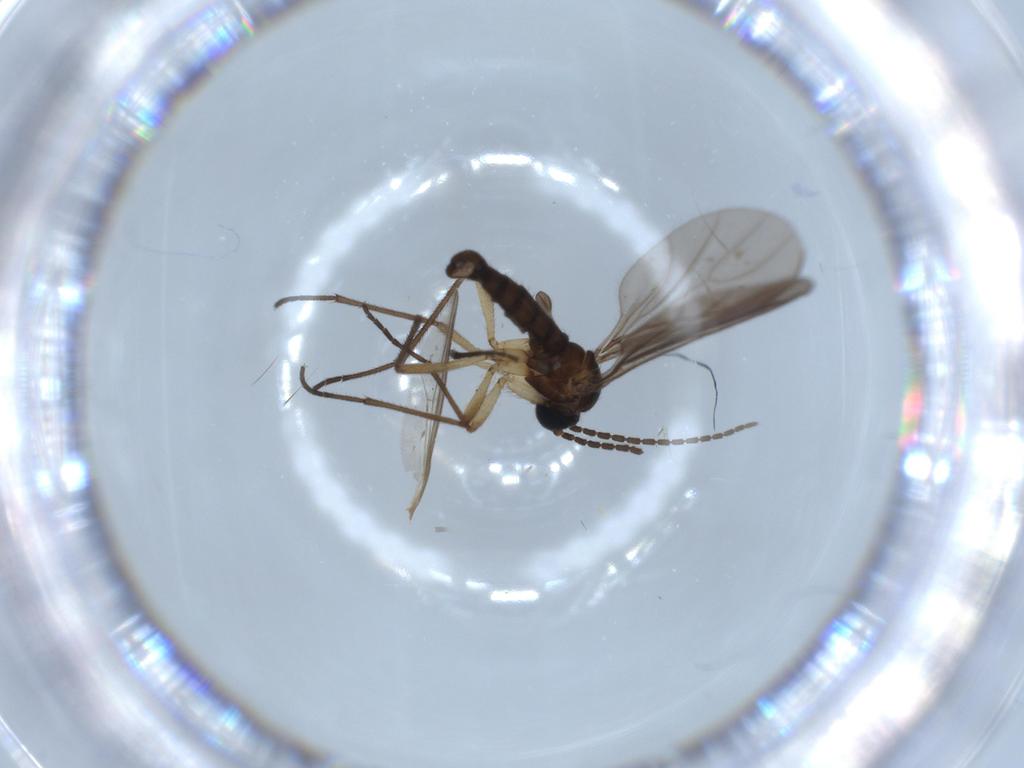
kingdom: Animalia
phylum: Arthropoda
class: Insecta
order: Diptera
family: Sciaridae
